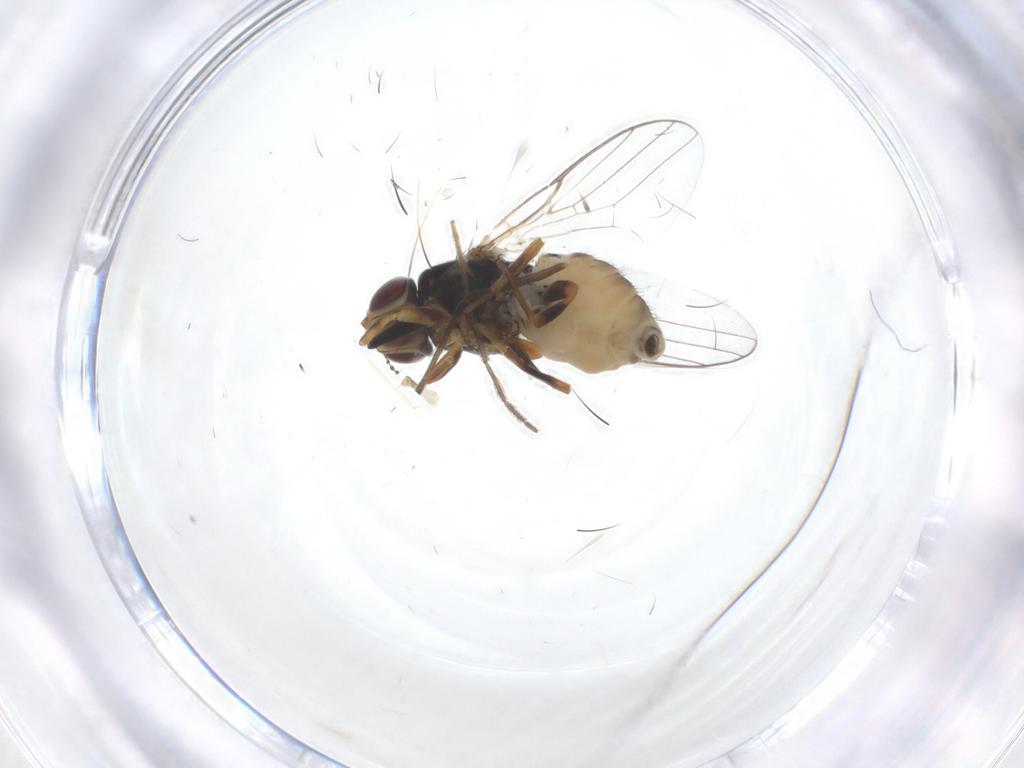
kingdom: Animalia
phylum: Arthropoda
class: Insecta
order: Diptera
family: Chloropidae
